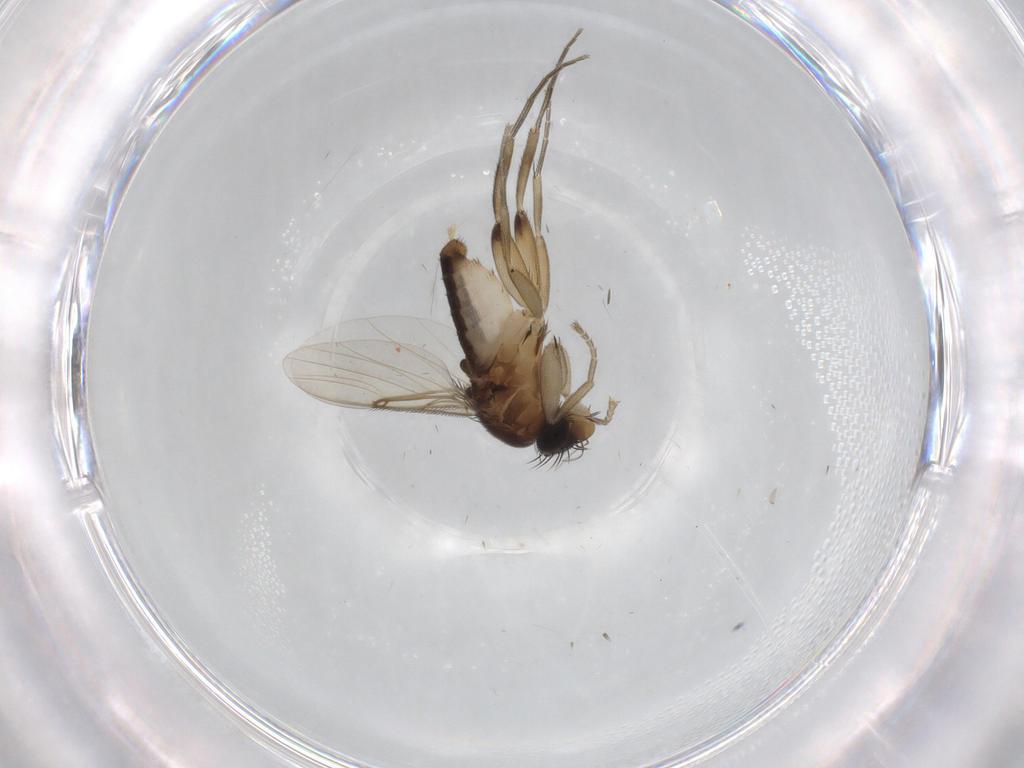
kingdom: Animalia
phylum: Arthropoda
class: Insecta
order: Diptera
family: Phoridae
